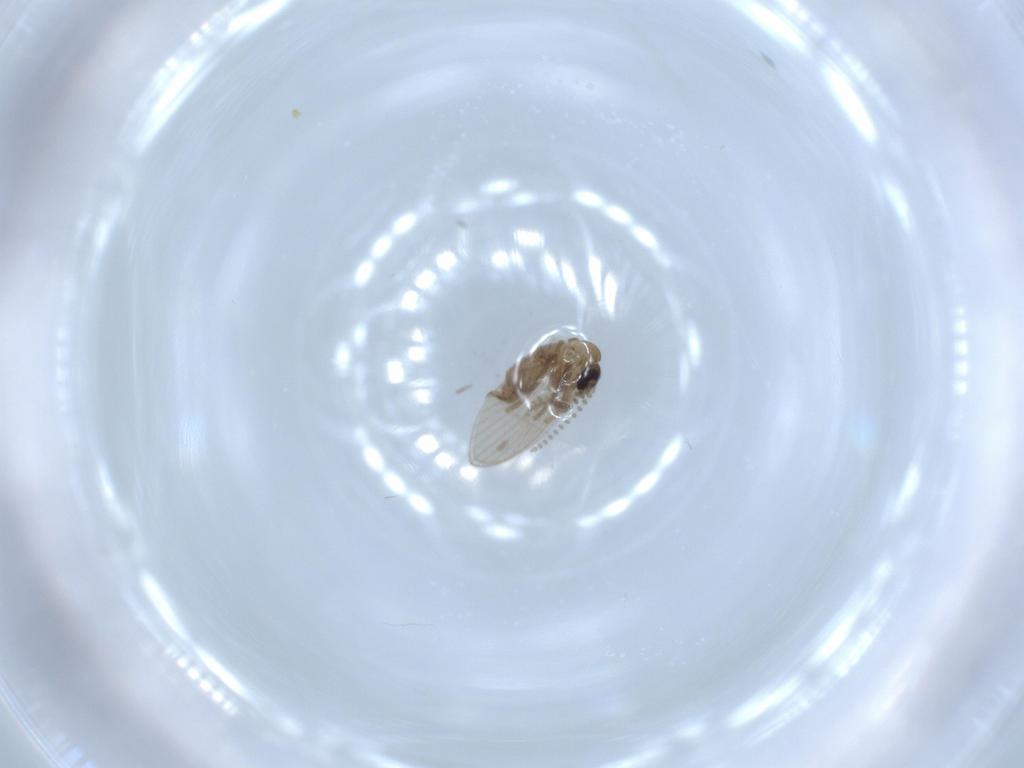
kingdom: Animalia
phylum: Arthropoda
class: Insecta
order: Diptera
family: Psychodidae
